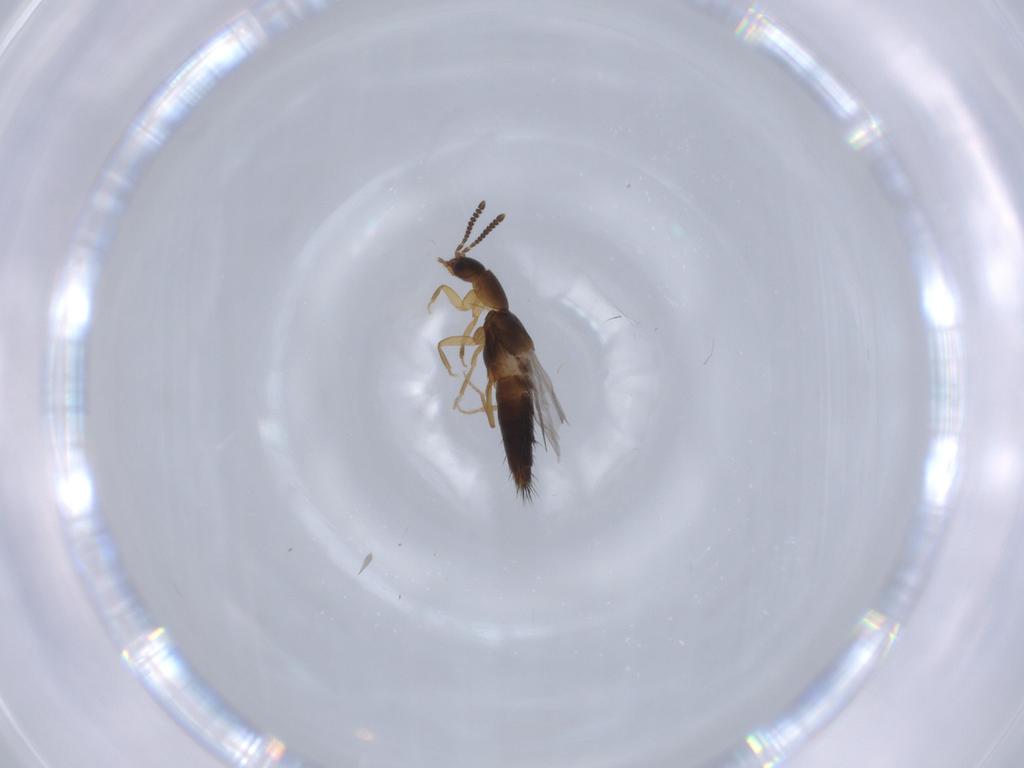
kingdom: Animalia
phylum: Arthropoda
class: Insecta
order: Coleoptera
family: Staphylinidae
